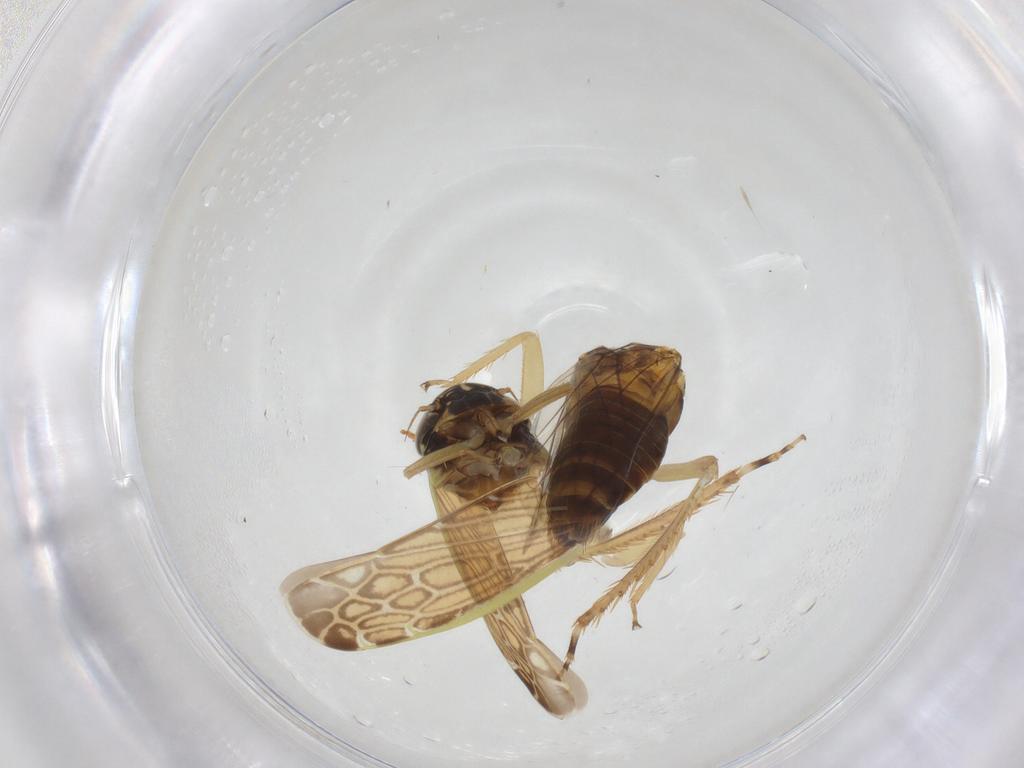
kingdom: Animalia
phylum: Arthropoda
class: Insecta
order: Hemiptera
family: Cicadellidae
